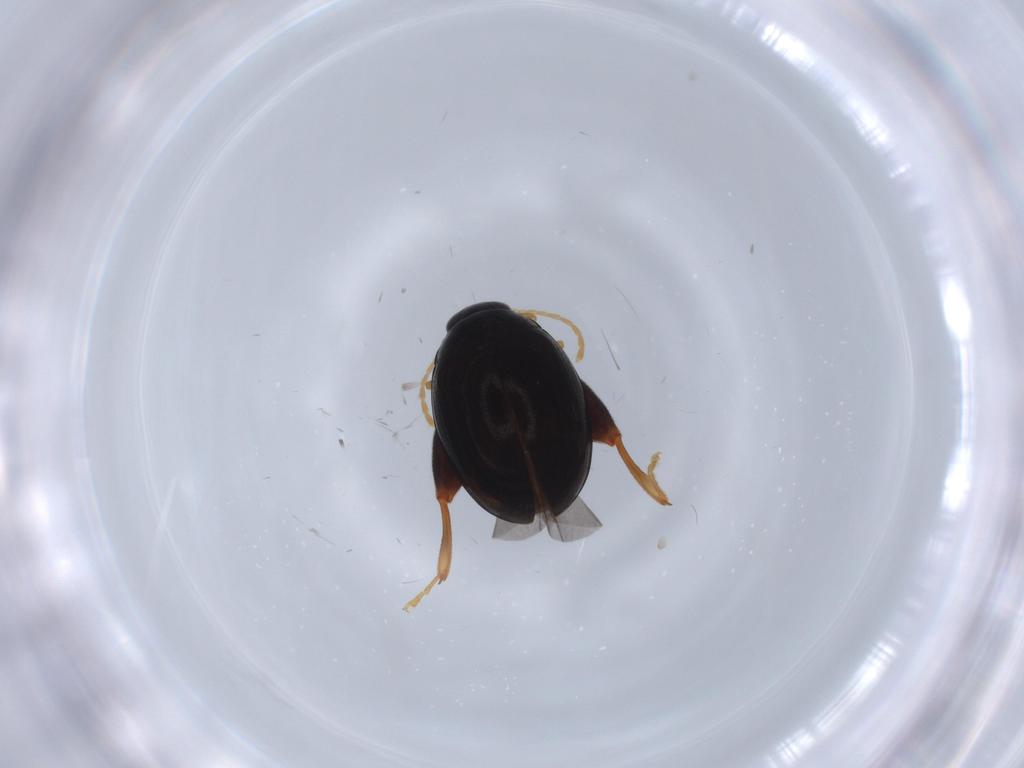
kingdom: Animalia
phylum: Arthropoda
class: Insecta
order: Coleoptera
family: Chrysomelidae
